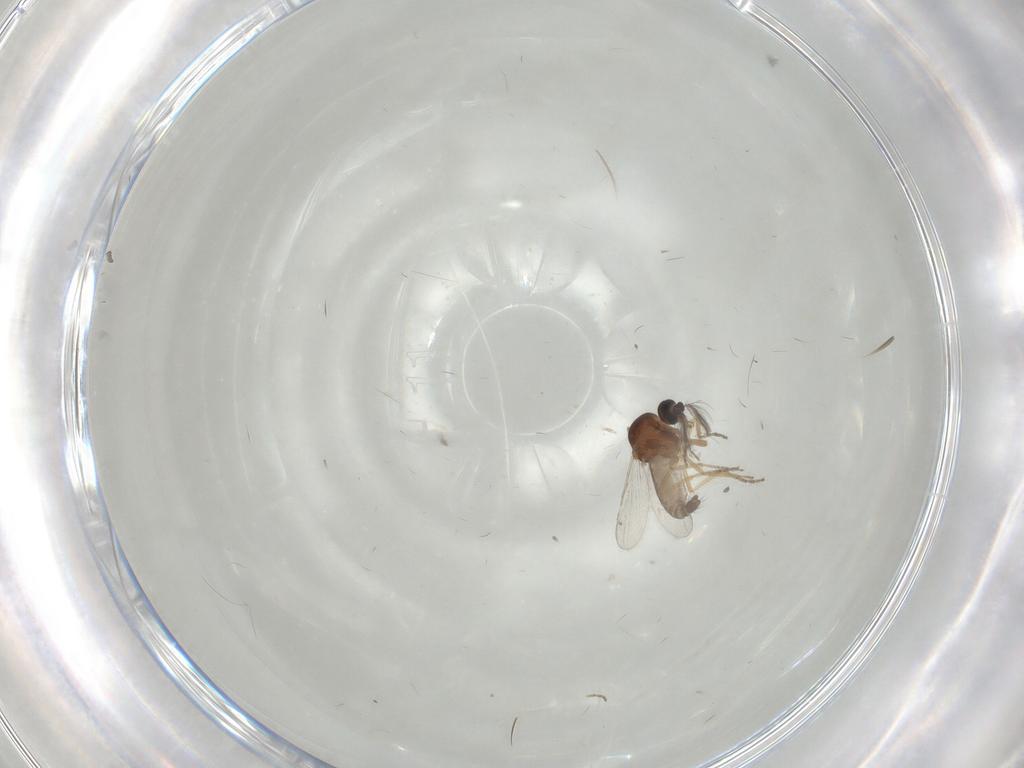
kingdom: Animalia
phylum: Arthropoda
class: Insecta
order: Diptera
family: Ceratopogonidae
